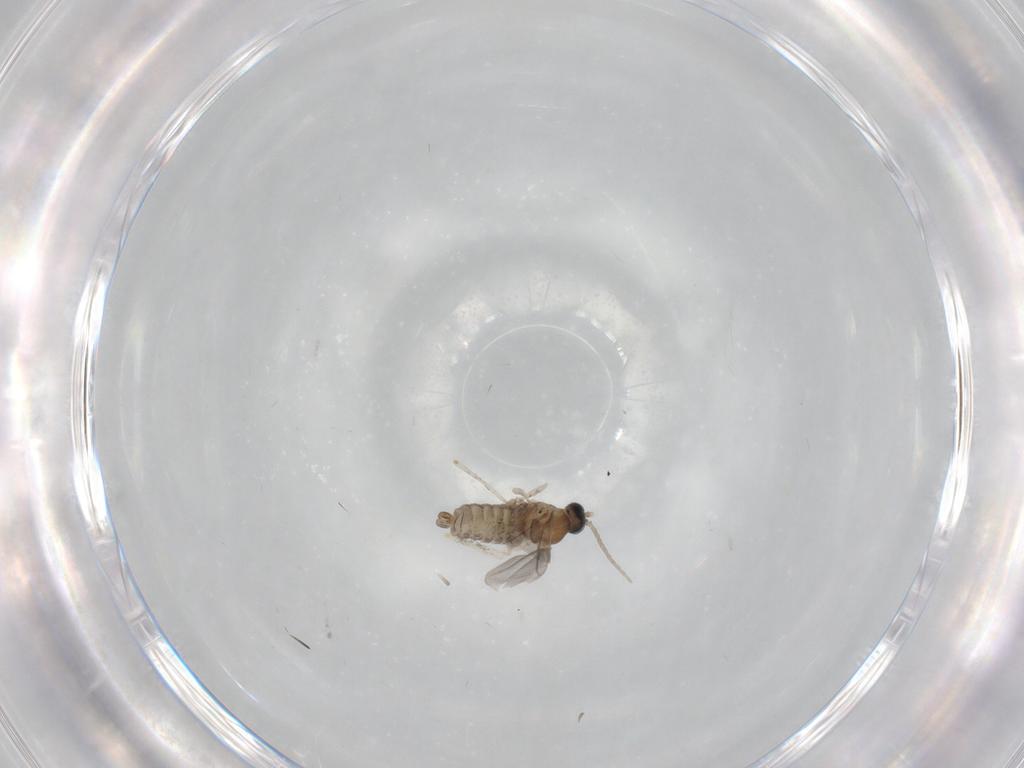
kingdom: Animalia
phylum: Arthropoda
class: Insecta
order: Diptera
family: Cecidomyiidae
